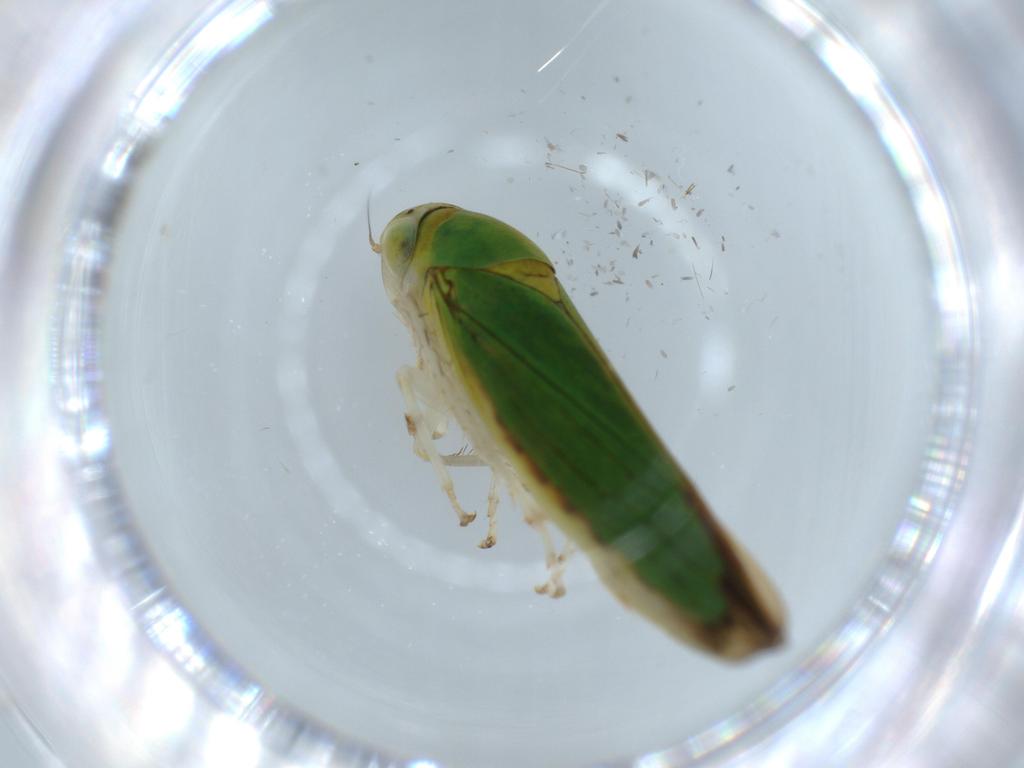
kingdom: Animalia
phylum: Arthropoda
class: Insecta
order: Hemiptera
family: Cicadellidae
